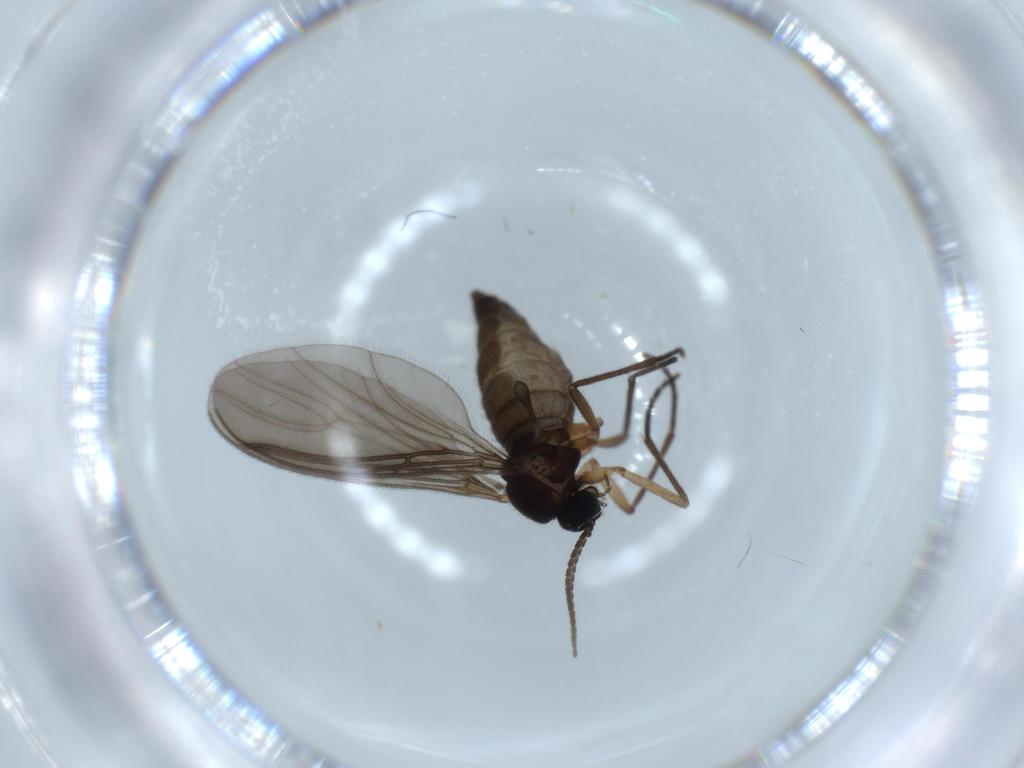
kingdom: Animalia
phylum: Arthropoda
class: Insecta
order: Diptera
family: Sciaridae
